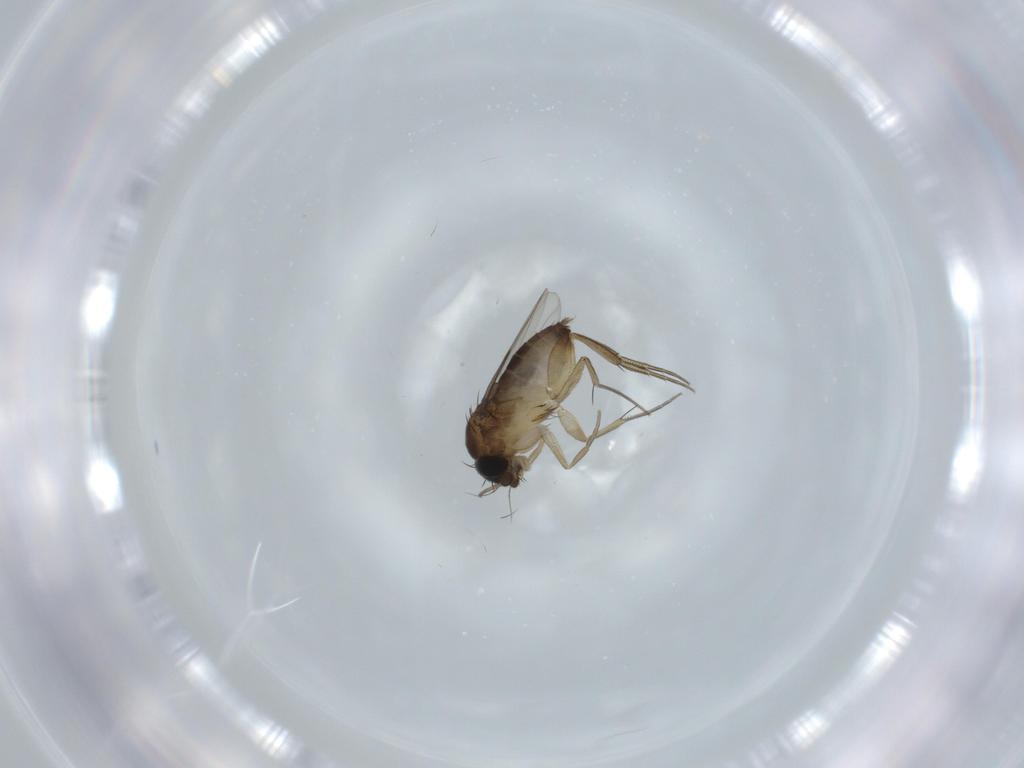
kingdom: Animalia
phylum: Arthropoda
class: Insecta
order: Diptera
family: Phoridae
